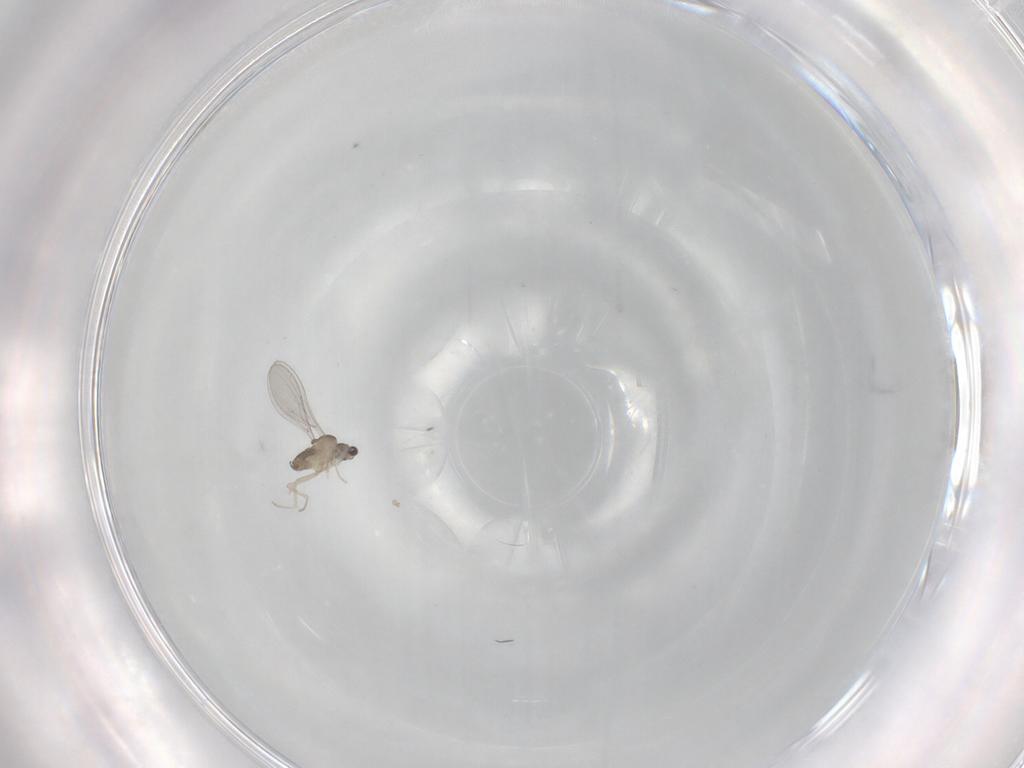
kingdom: Animalia
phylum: Arthropoda
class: Insecta
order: Diptera
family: Cecidomyiidae
